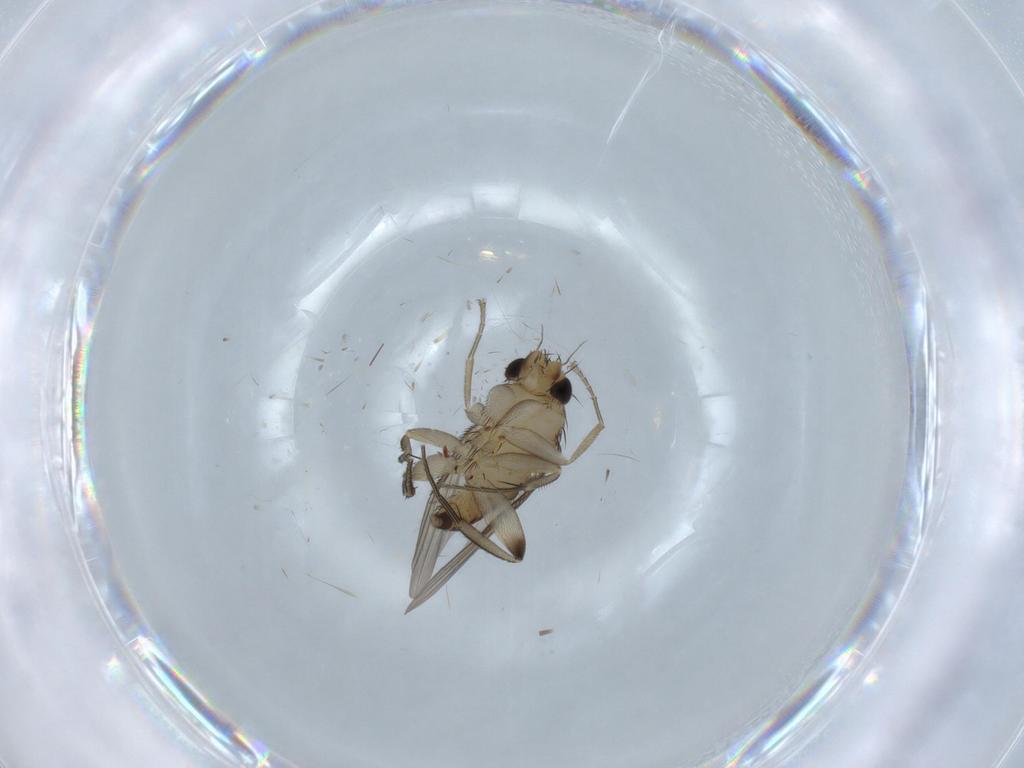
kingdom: Animalia
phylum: Arthropoda
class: Insecta
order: Diptera
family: Phoridae
